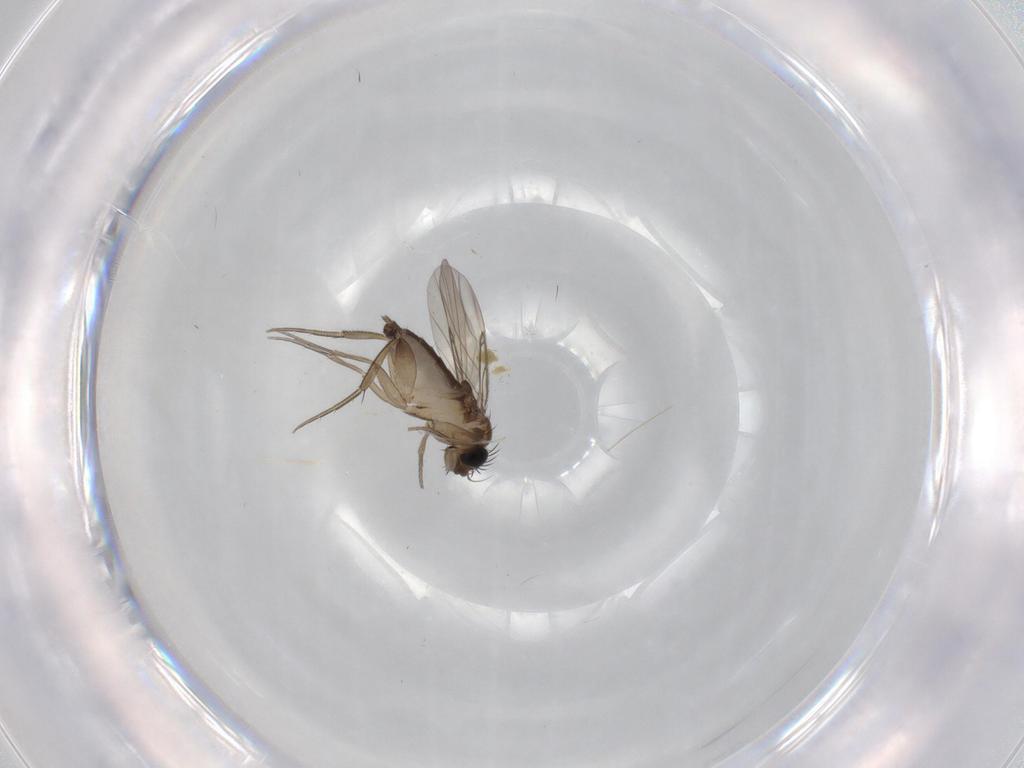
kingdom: Animalia
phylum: Arthropoda
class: Insecta
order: Diptera
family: Phoridae
